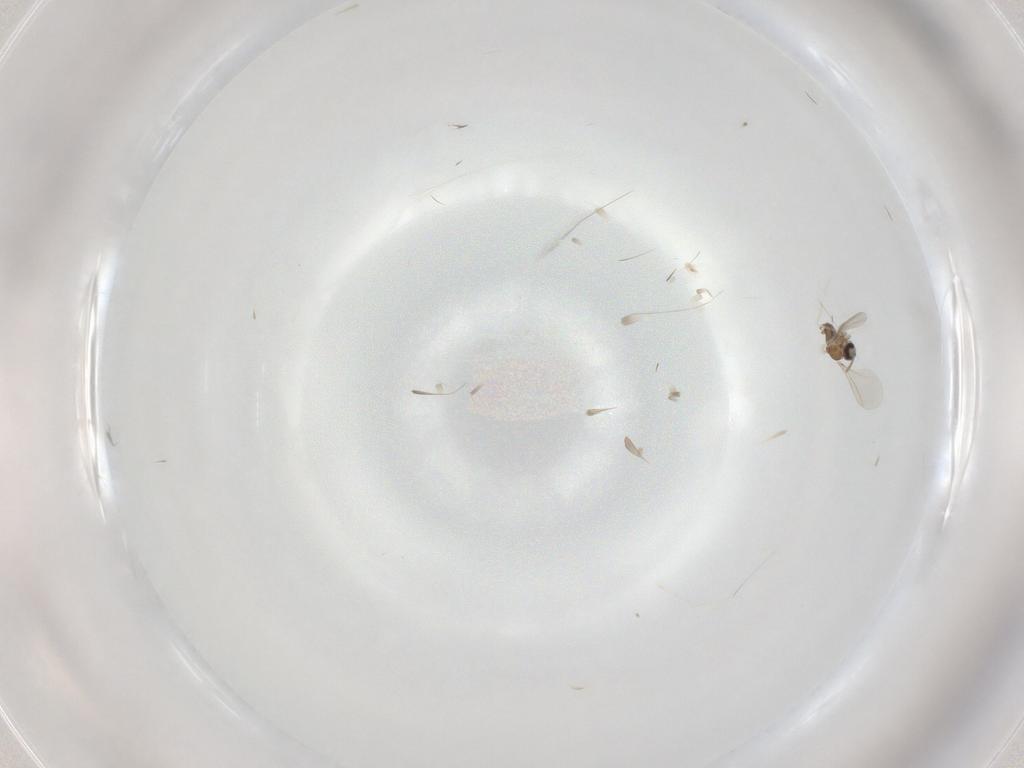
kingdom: Animalia
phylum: Arthropoda
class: Insecta
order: Diptera
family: Cecidomyiidae
